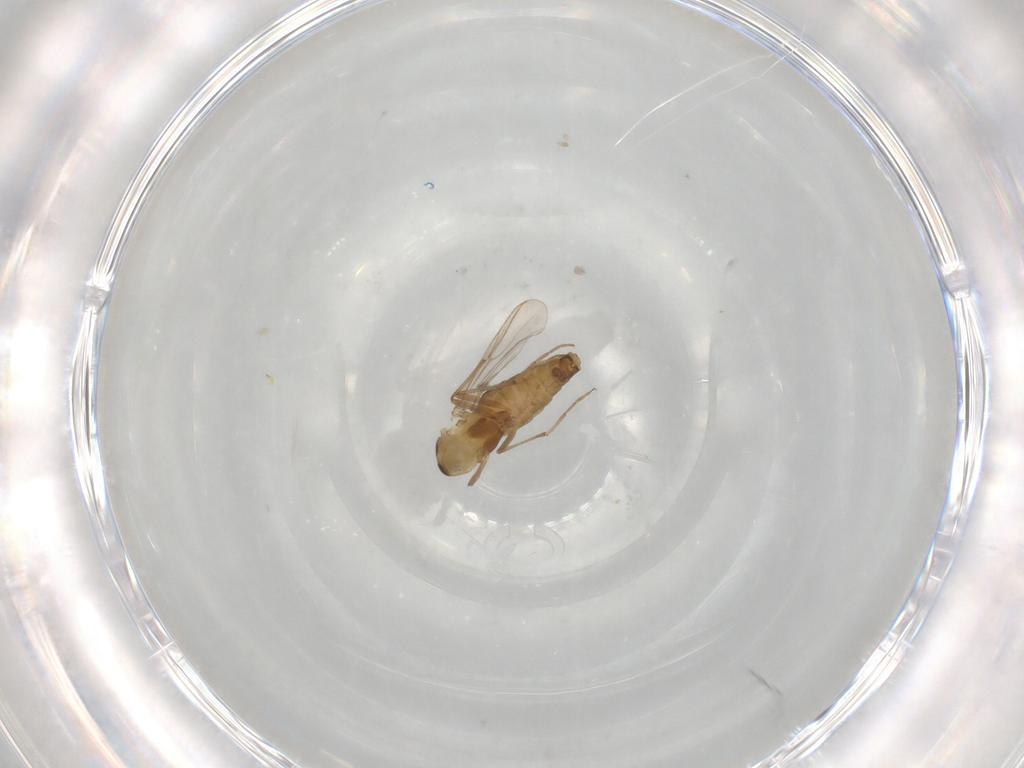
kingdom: Animalia
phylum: Arthropoda
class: Insecta
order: Diptera
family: Chironomidae
